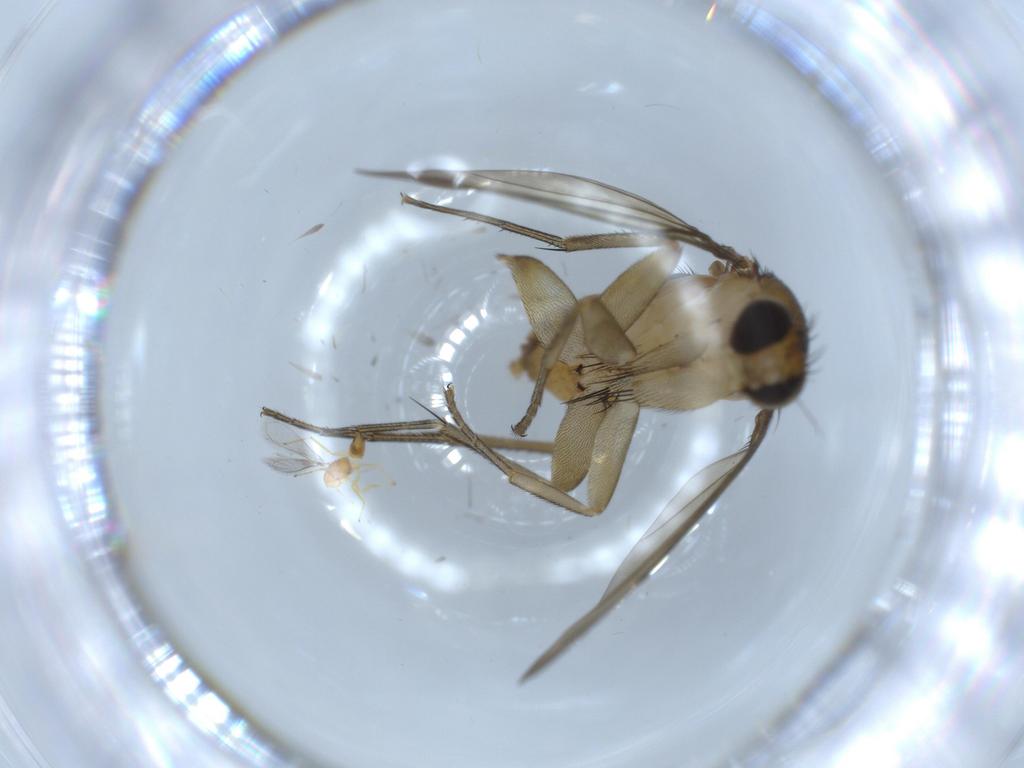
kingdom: Animalia
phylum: Arthropoda
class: Insecta
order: Diptera
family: Phoridae
